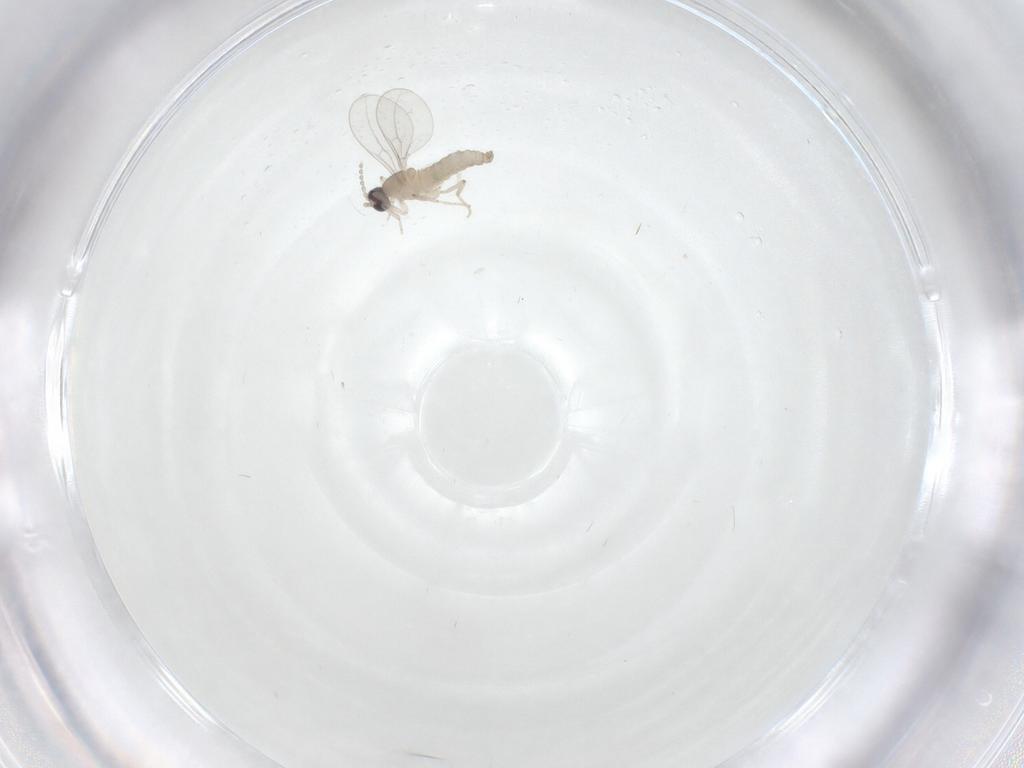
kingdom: Animalia
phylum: Arthropoda
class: Insecta
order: Diptera
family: Cecidomyiidae
